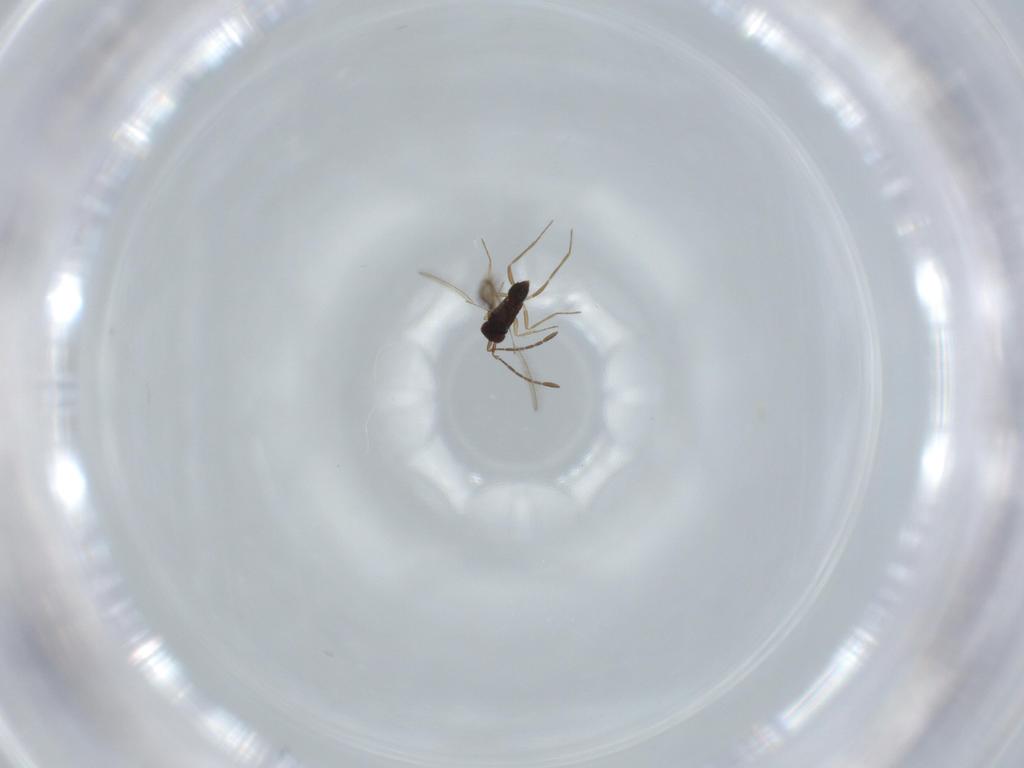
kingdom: Animalia
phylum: Arthropoda
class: Insecta
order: Hymenoptera
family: Mymaridae
